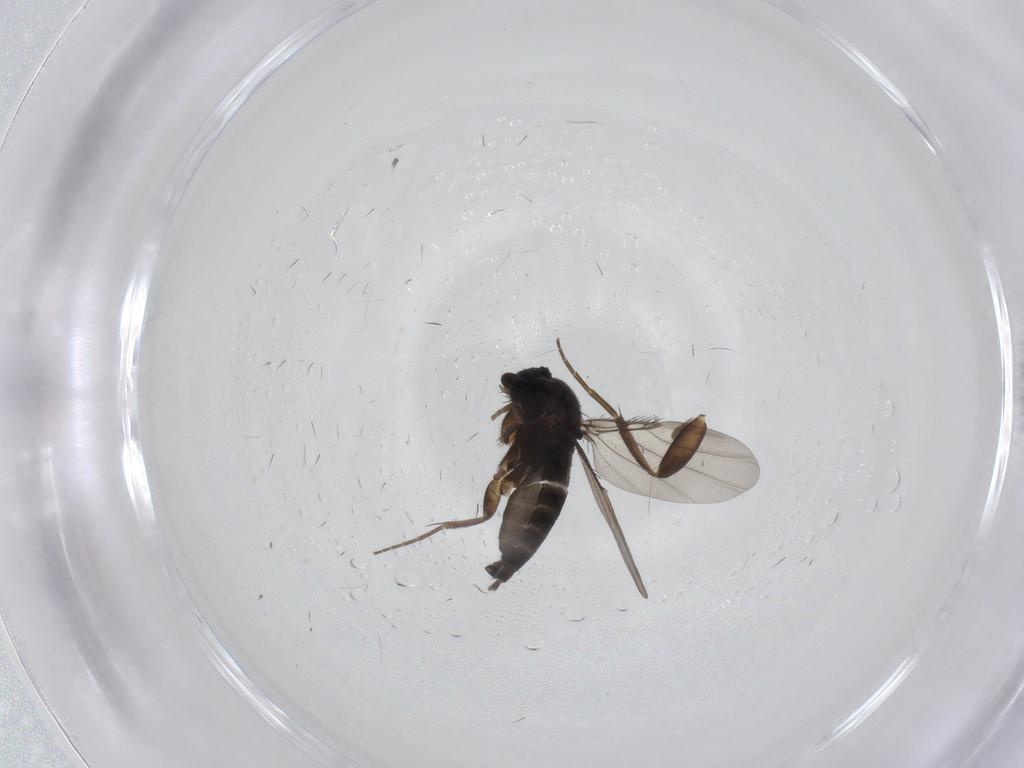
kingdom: Animalia
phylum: Arthropoda
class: Insecta
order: Diptera
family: Phoridae
